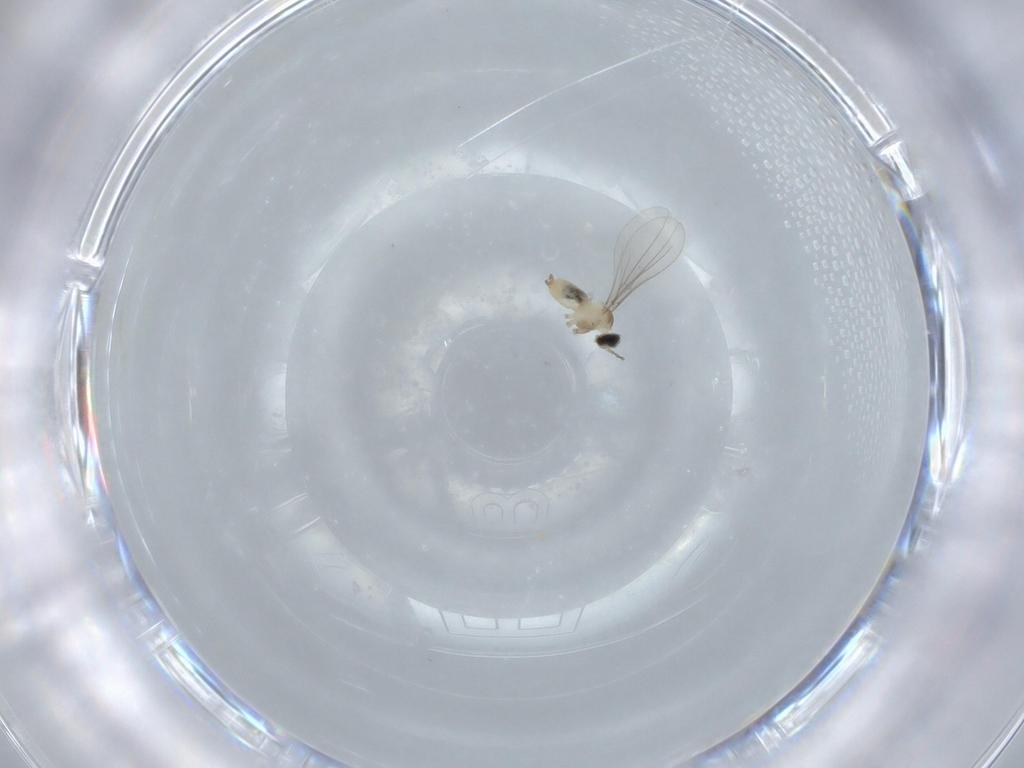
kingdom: Animalia
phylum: Arthropoda
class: Insecta
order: Diptera
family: Cecidomyiidae
